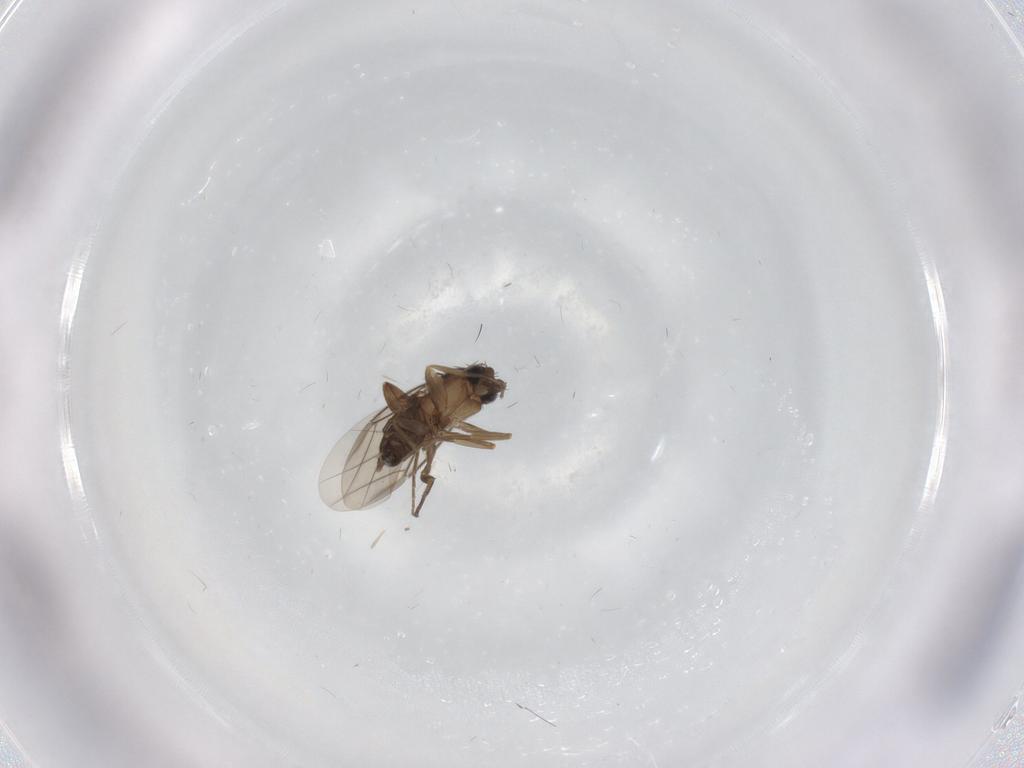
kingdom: Animalia
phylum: Arthropoda
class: Insecta
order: Diptera
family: Phoridae
